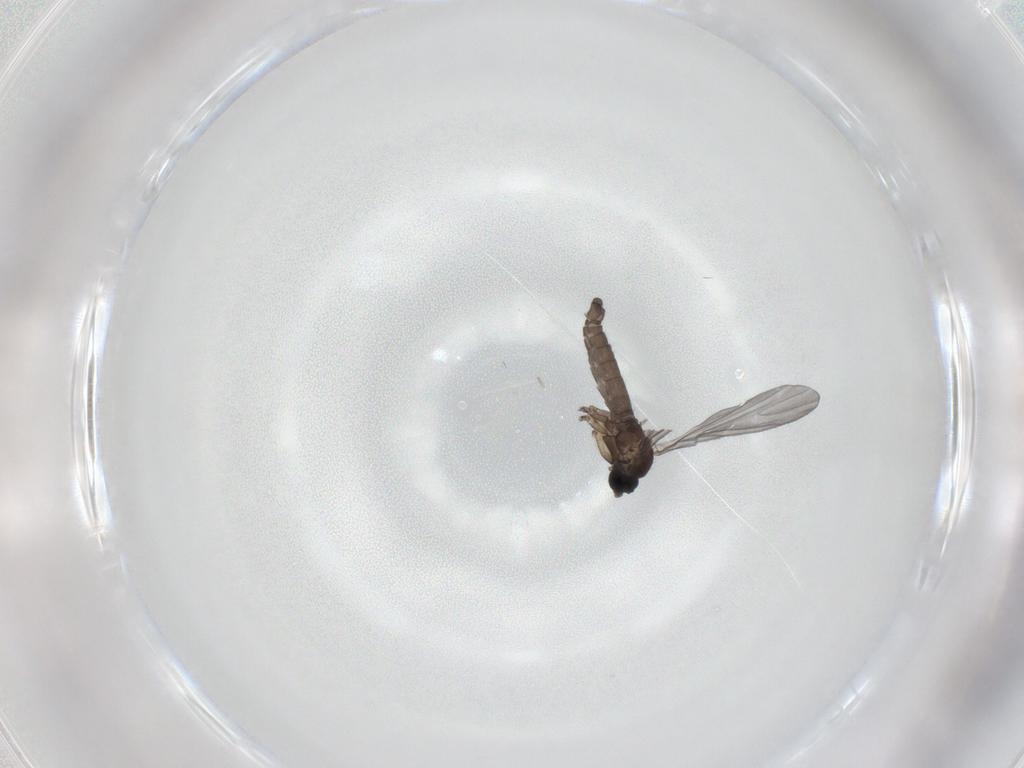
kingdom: Animalia
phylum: Arthropoda
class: Insecta
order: Diptera
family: Sciaridae
